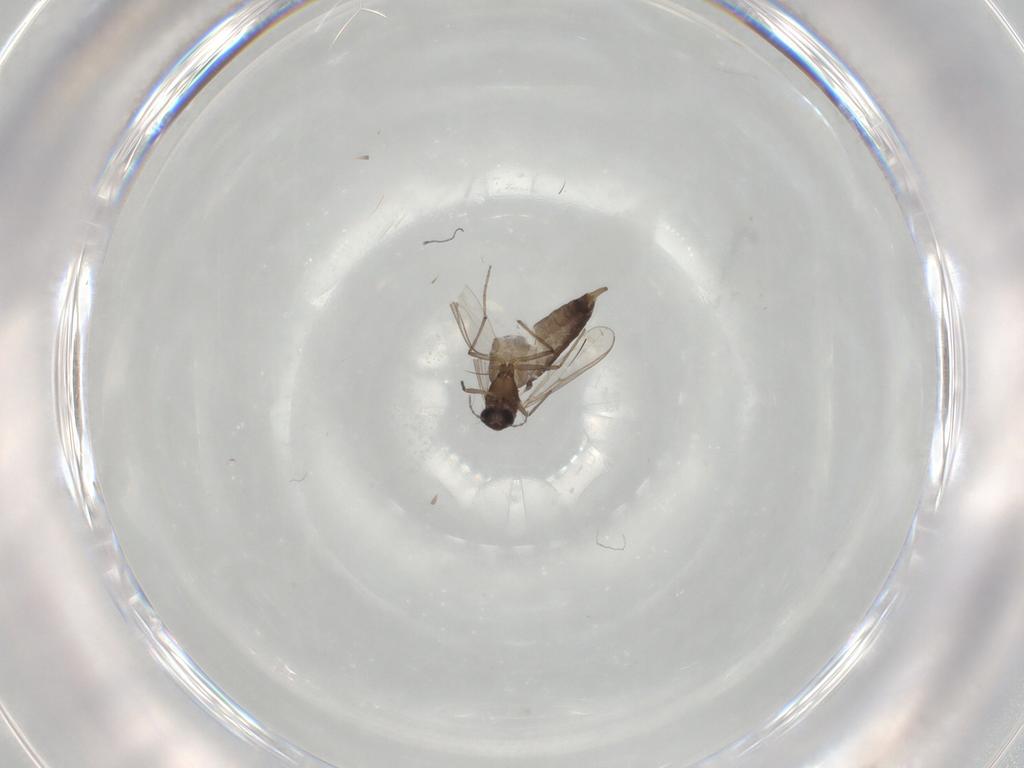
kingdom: Animalia
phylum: Arthropoda
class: Insecta
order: Diptera
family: Chironomidae
